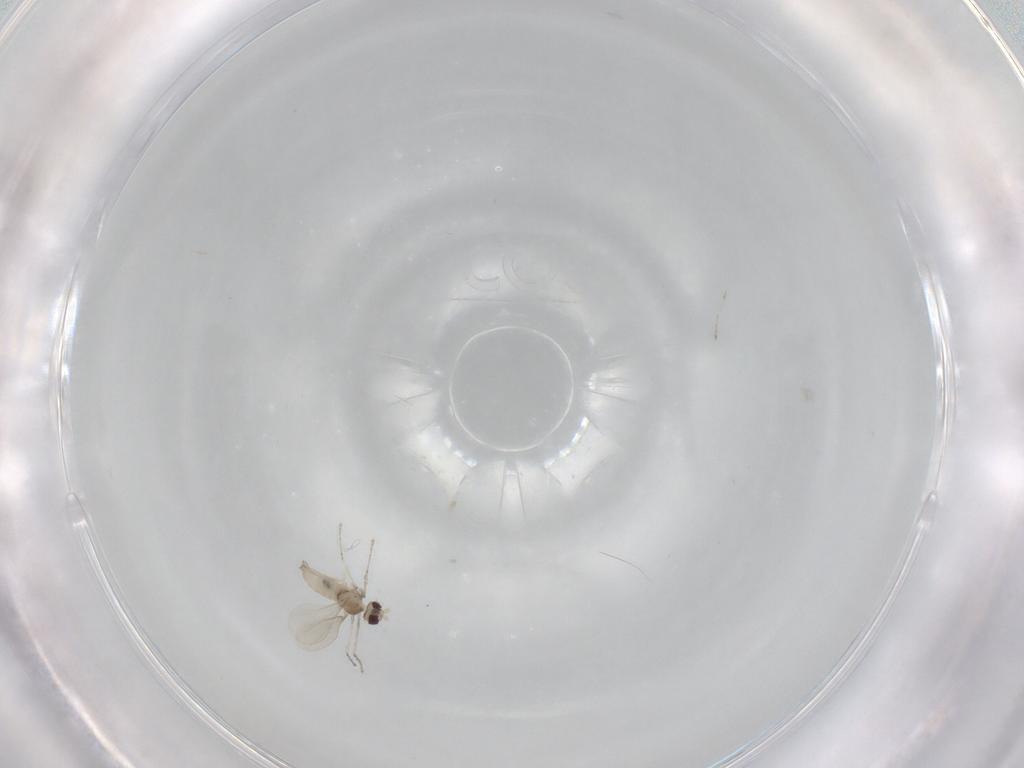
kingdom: Animalia
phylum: Arthropoda
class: Insecta
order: Diptera
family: Cecidomyiidae
